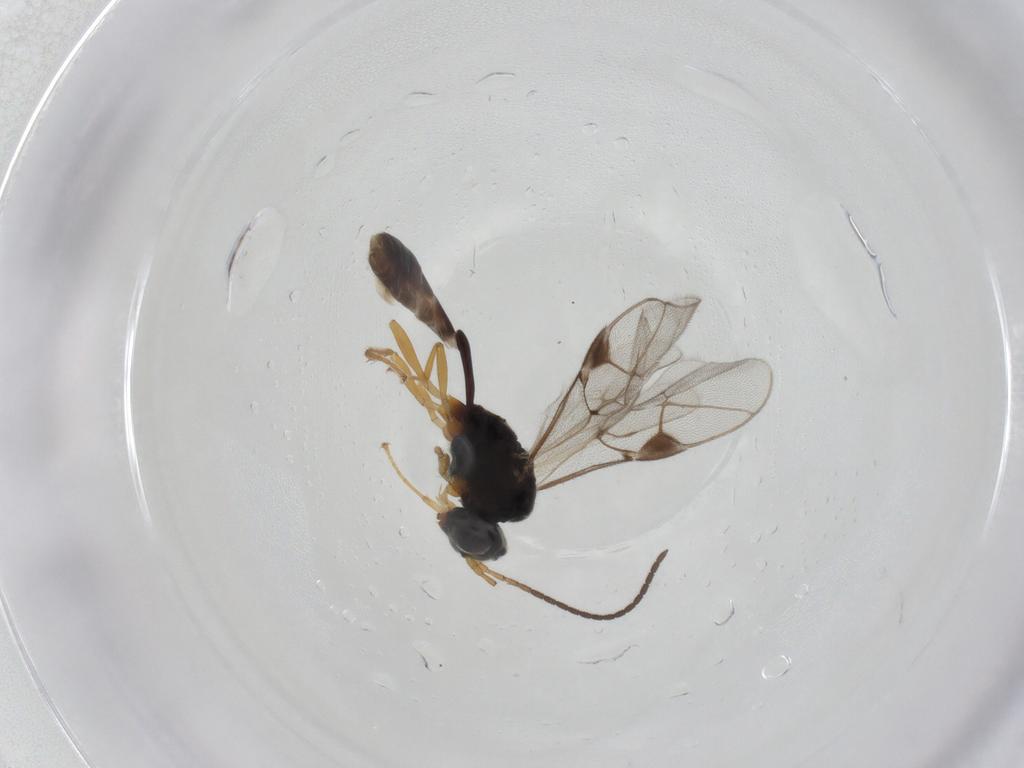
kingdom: Animalia
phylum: Arthropoda
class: Insecta
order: Hymenoptera
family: Ichneumonidae
